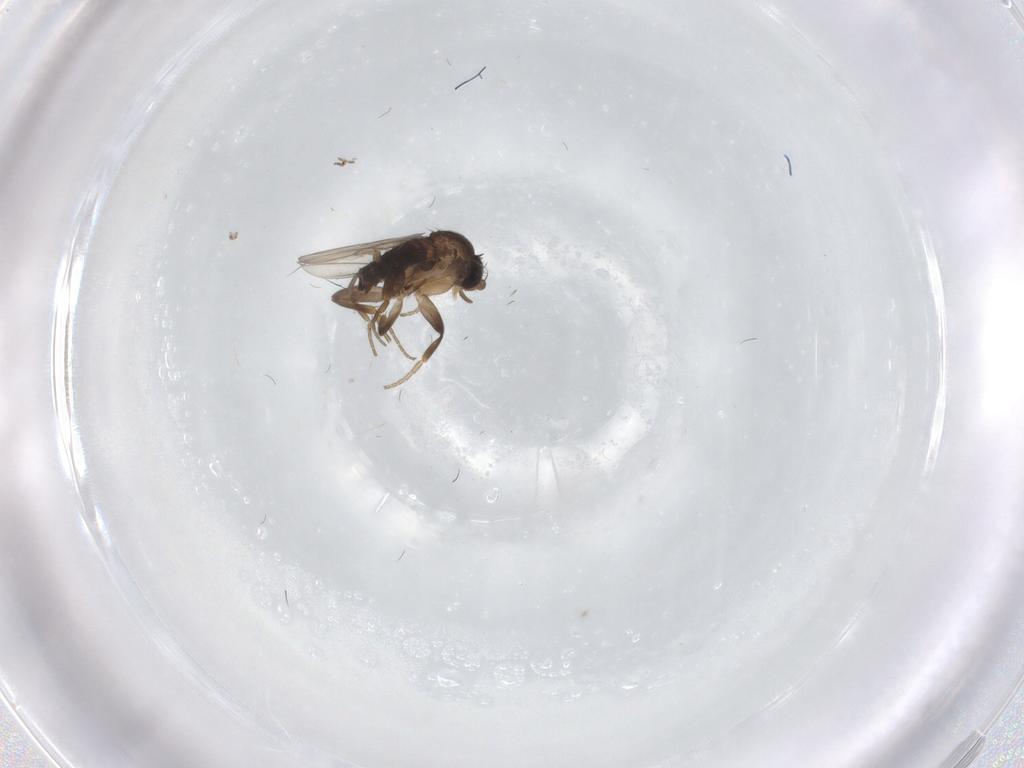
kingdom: Animalia
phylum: Arthropoda
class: Insecta
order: Diptera
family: Phoridae
